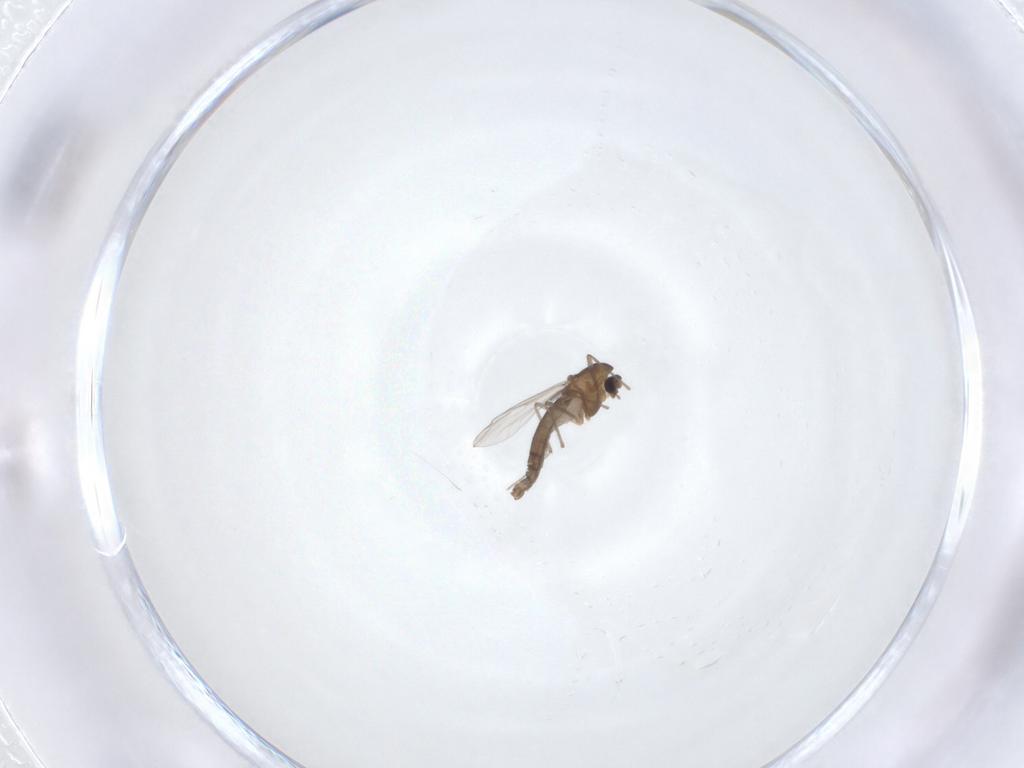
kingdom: Animalia
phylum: Arthropoda
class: Insecta
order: Diptera
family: Chironomidae
